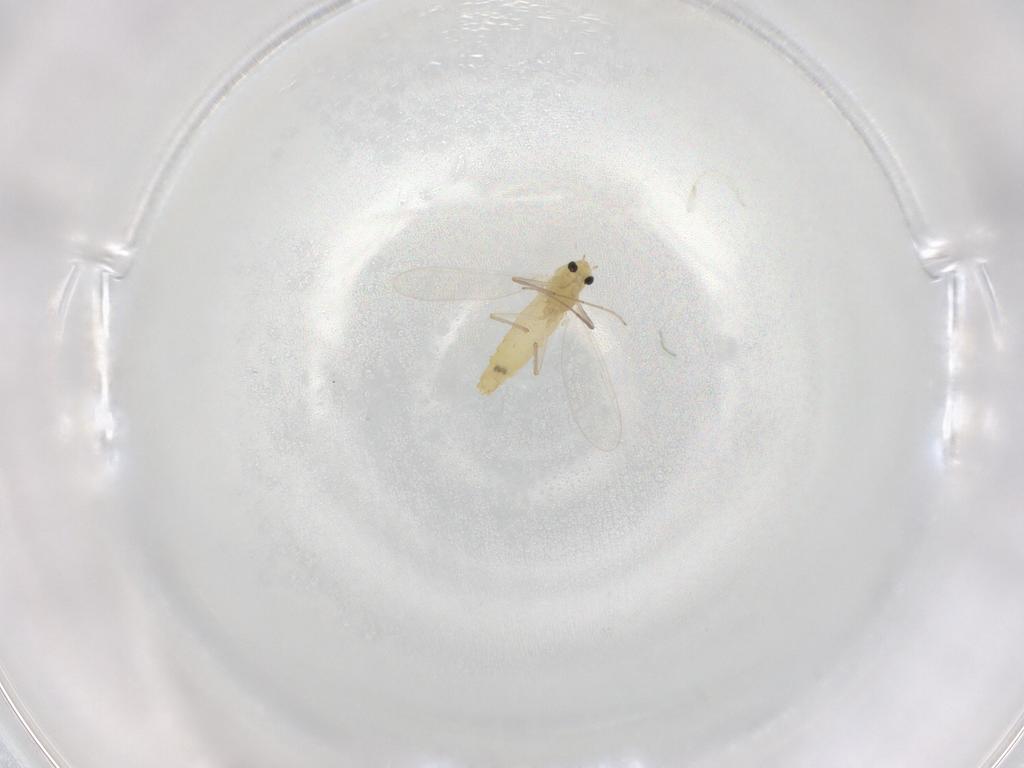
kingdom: Animalia
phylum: Arthropoda
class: Insecta
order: Diptera
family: Chironomidae
